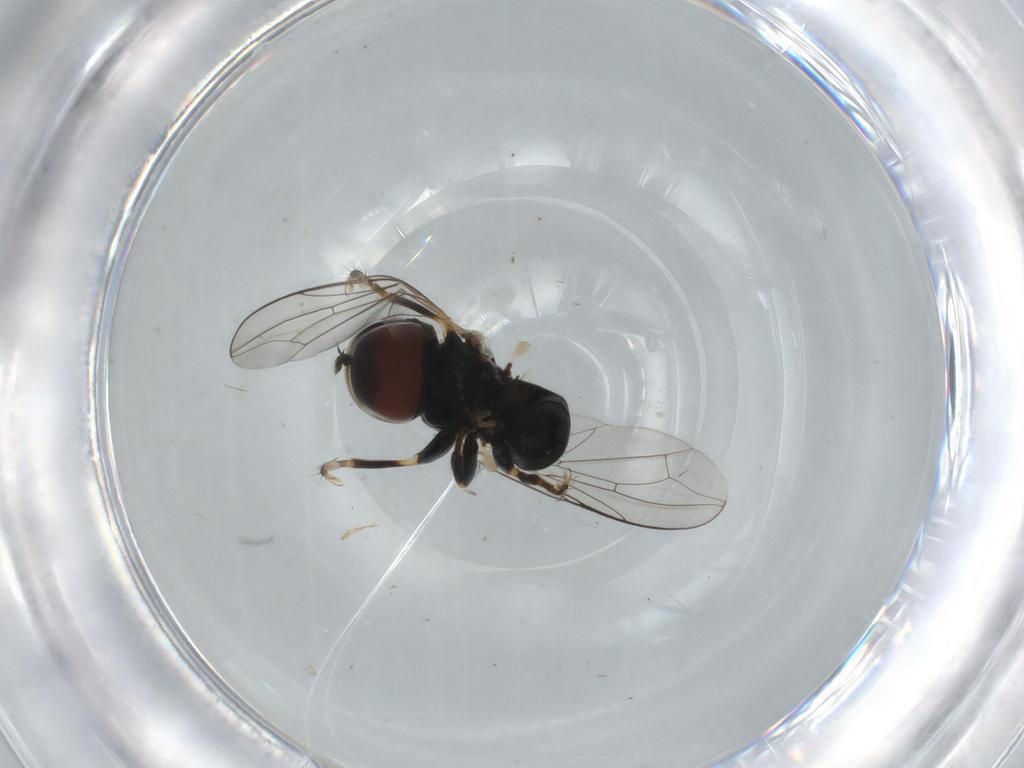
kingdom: Animalia
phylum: Arthropoda
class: Insecta
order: Diptera
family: Pipunculidae
